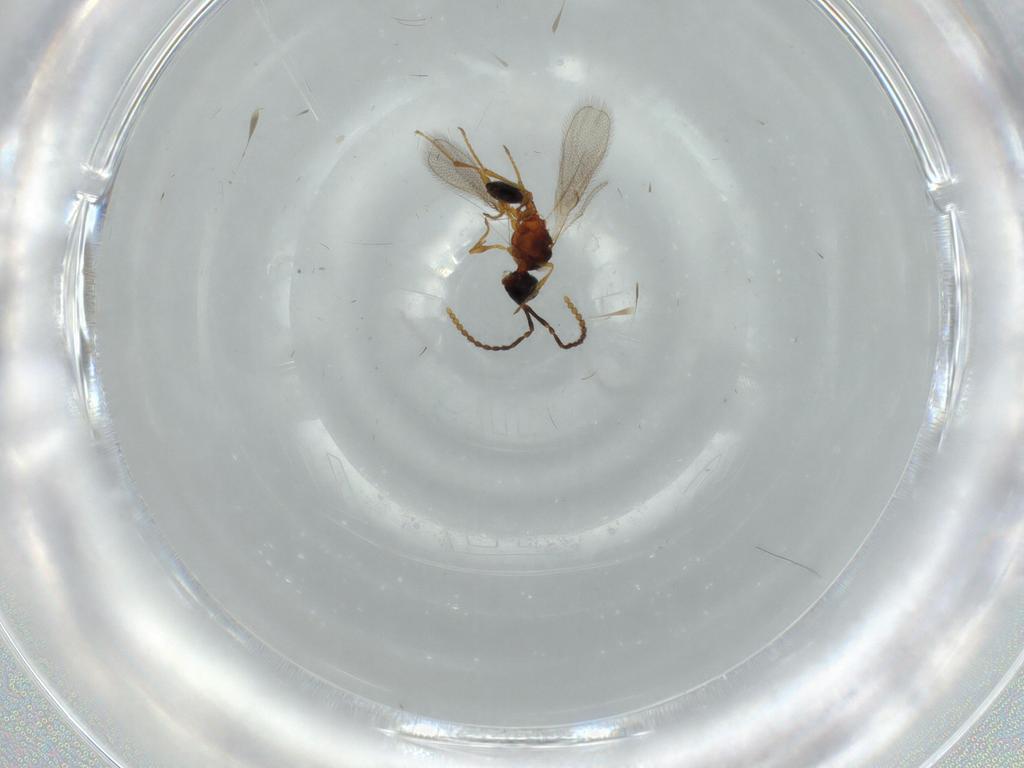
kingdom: Animalia
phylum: Arthropoda
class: Insecta
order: Hymenoptera
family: Diapriidae
